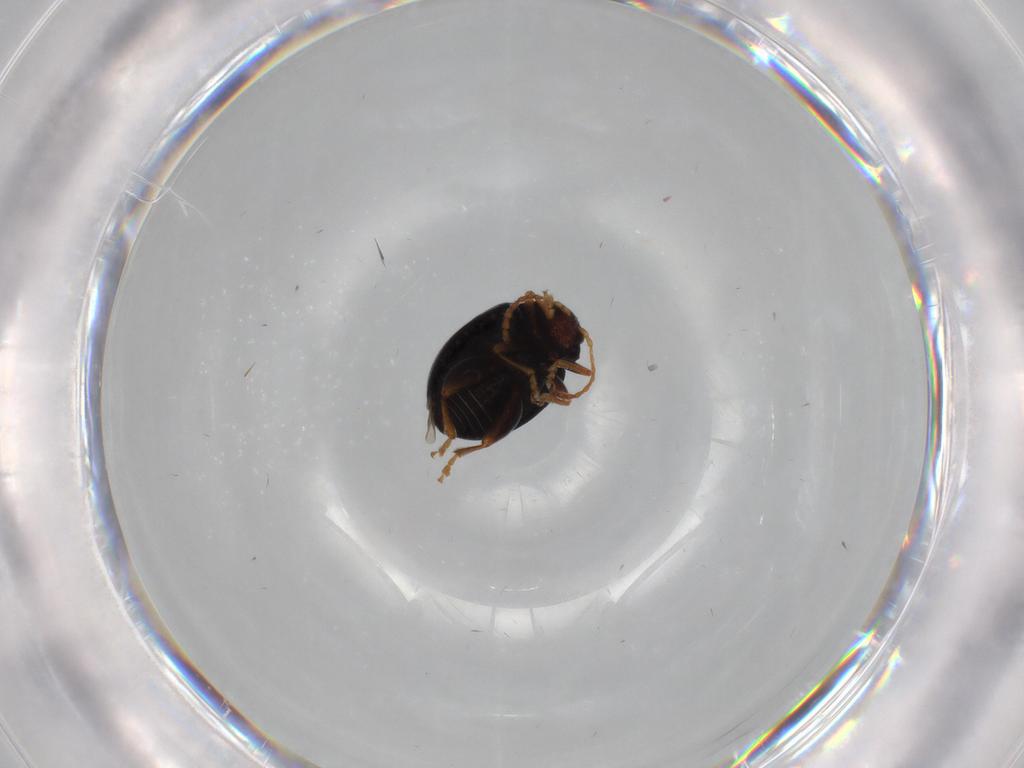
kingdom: Animalia
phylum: Arthropoda
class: Insecta
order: Coleoptera
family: Chrysomelidae
